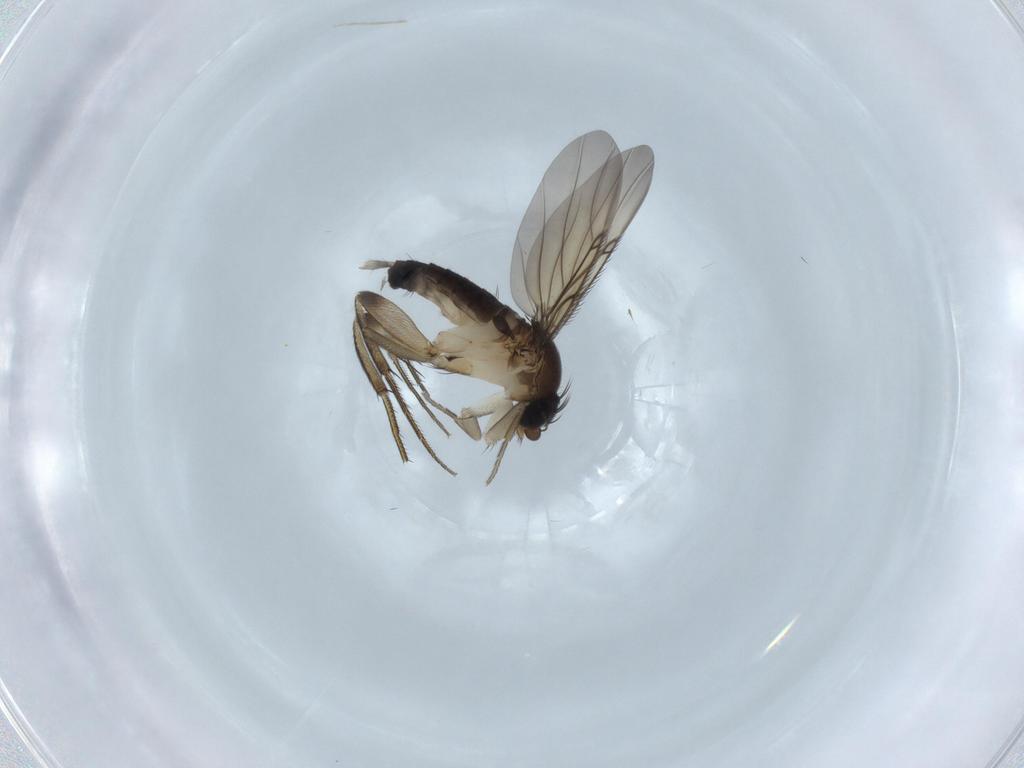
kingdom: Animalia
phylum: Arthropoda
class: Insecta
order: Diptera
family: Chironomidae
